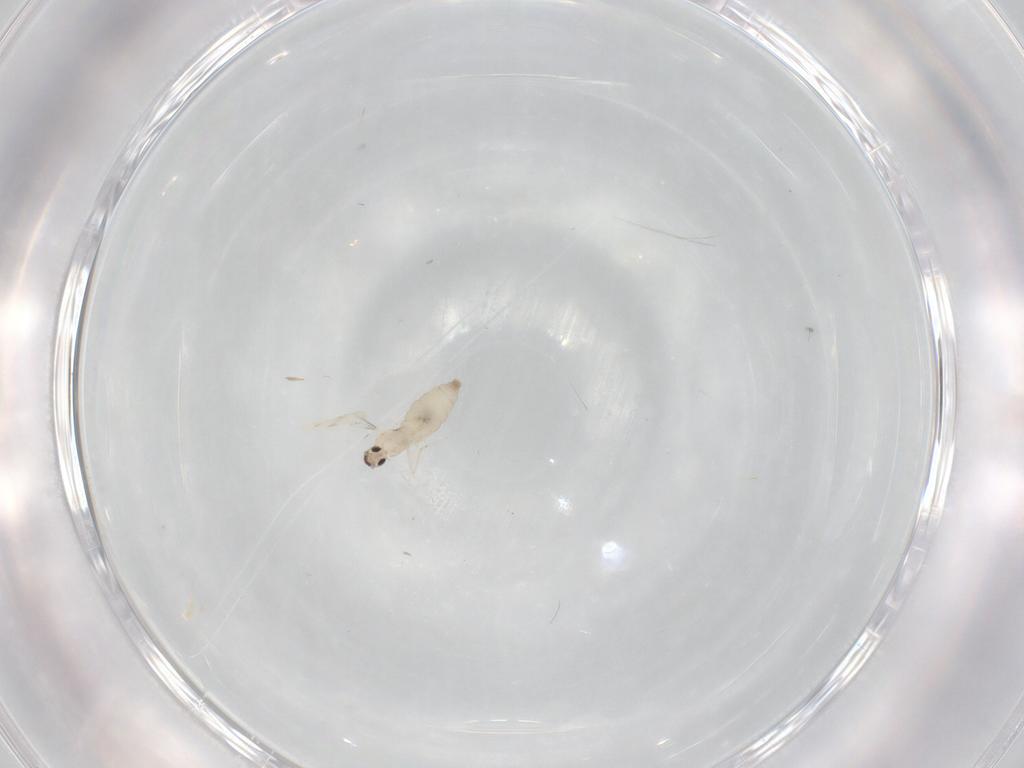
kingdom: Animalia
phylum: Arthropoda
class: Insecta
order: Diptera
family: Cecidomyiidae
